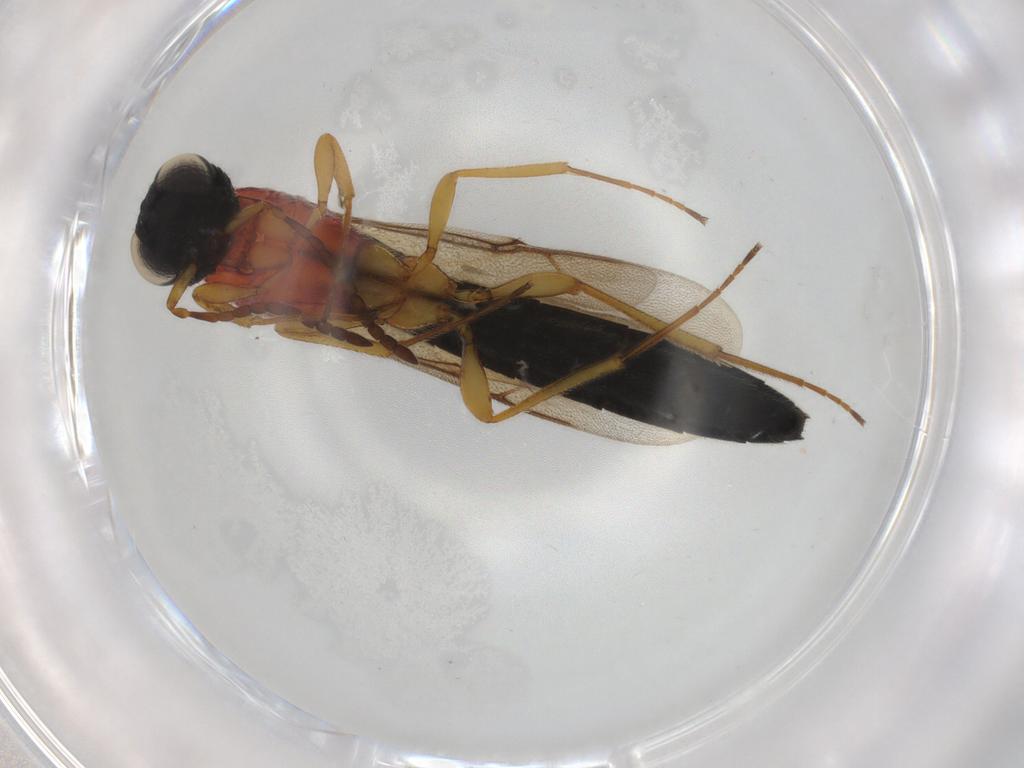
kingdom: Animalia
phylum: Arthropoda
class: Insecta
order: Hymenoptera
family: Scelionidae
